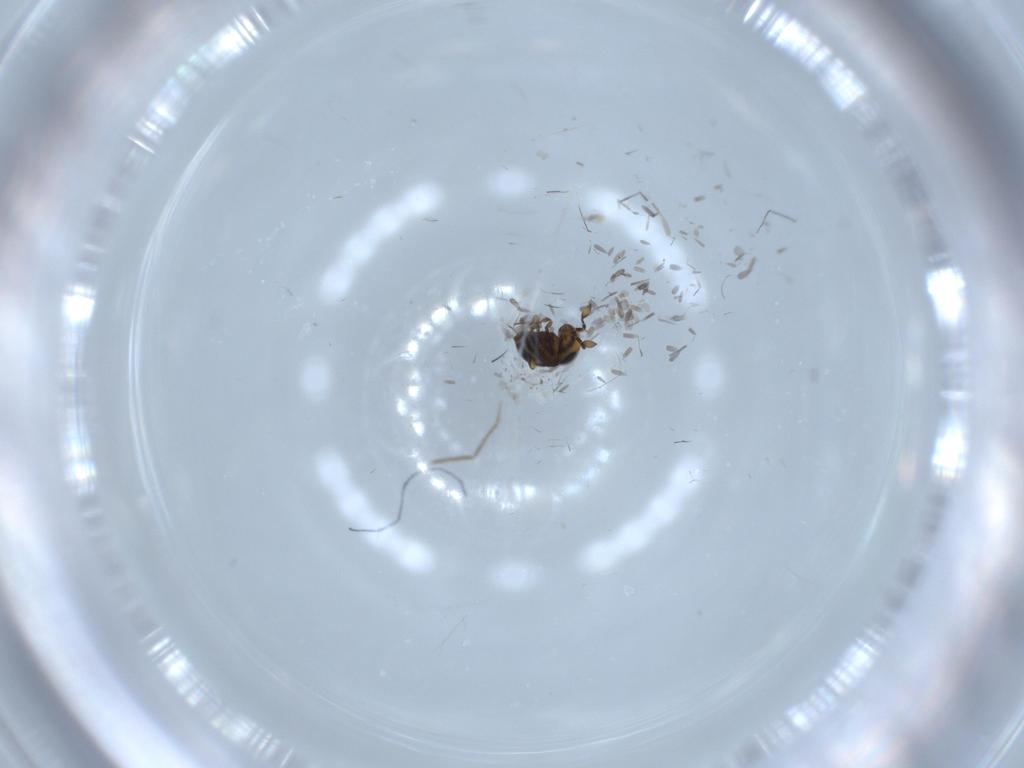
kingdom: Animalia
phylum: Arthropoda
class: Insecta
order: Hymenoptera
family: Scelionidae
